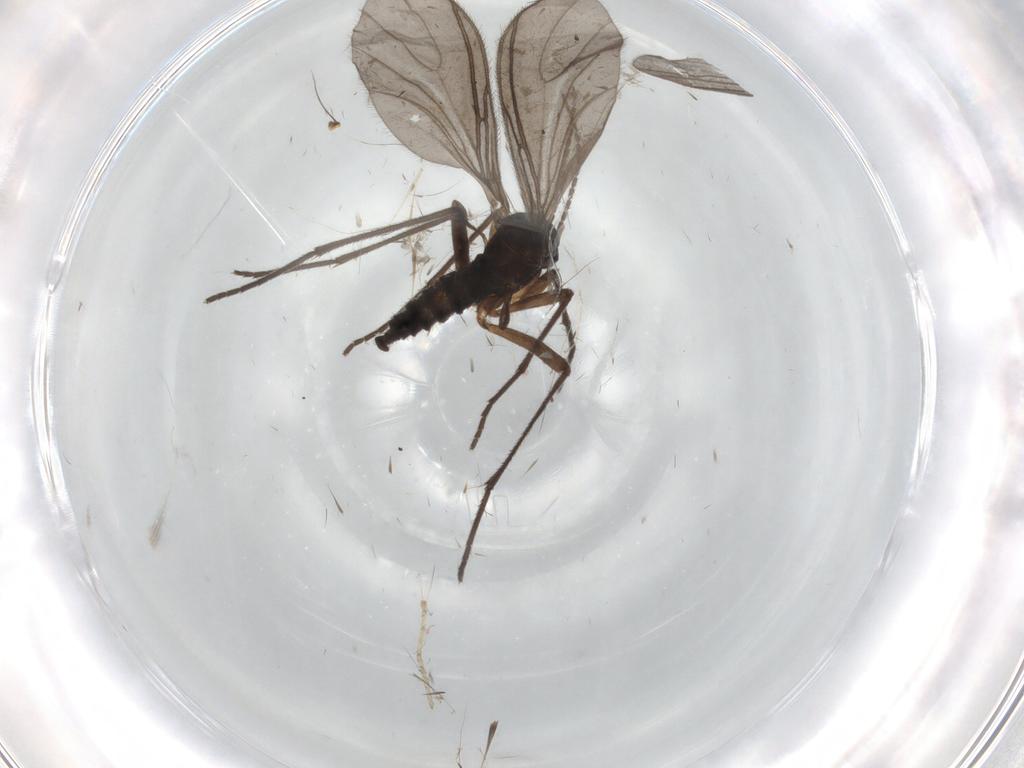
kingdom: Animalia
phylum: Arthropoda
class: Insecta
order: Diptera
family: Sciaridae
